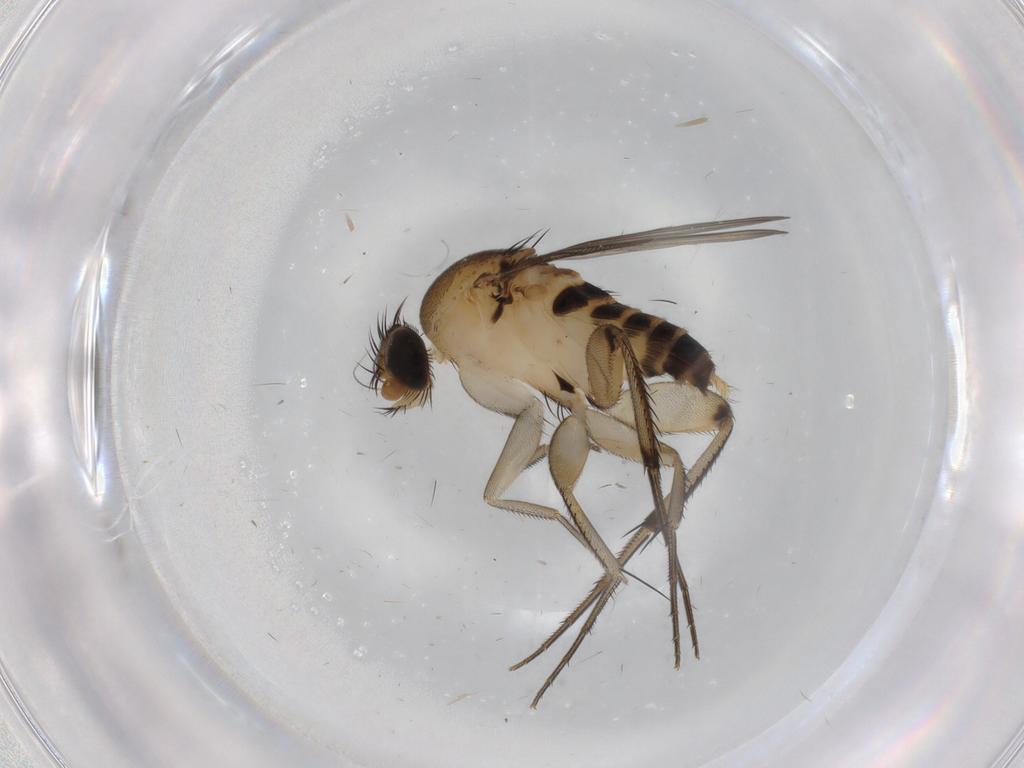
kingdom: Animalia
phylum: Arthropoda
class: Insecta
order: Diptera
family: Phoridae
